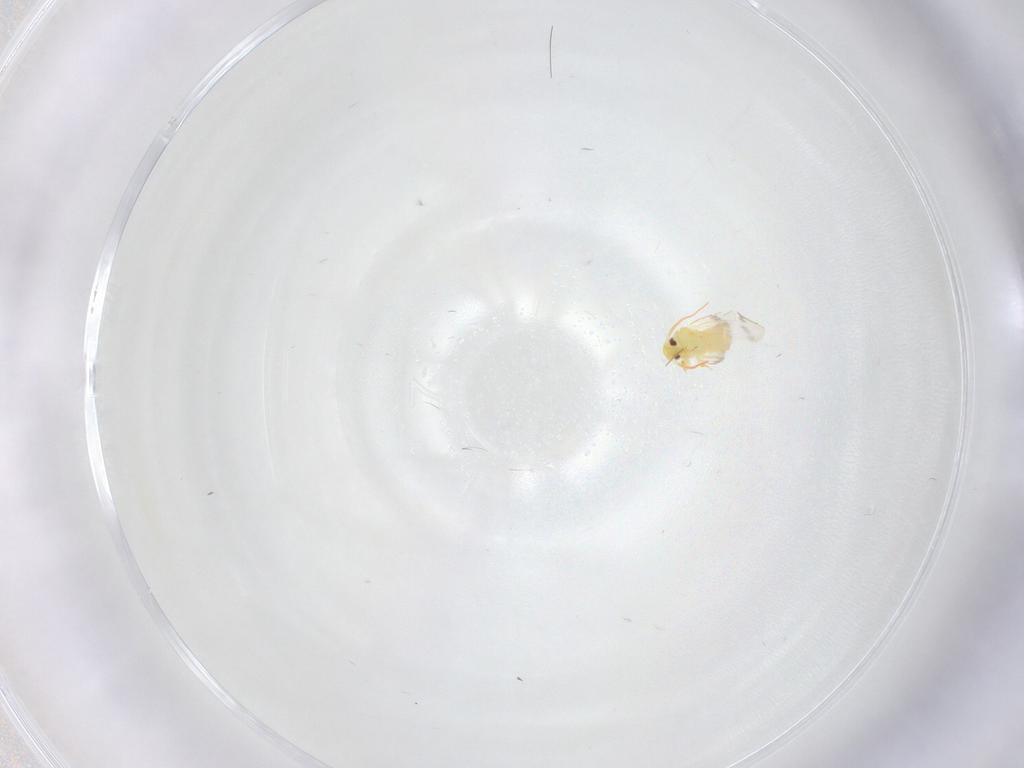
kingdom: Animalia
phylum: Arthropoda
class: Insecta
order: Hemiptera
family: Aleyrodidae
